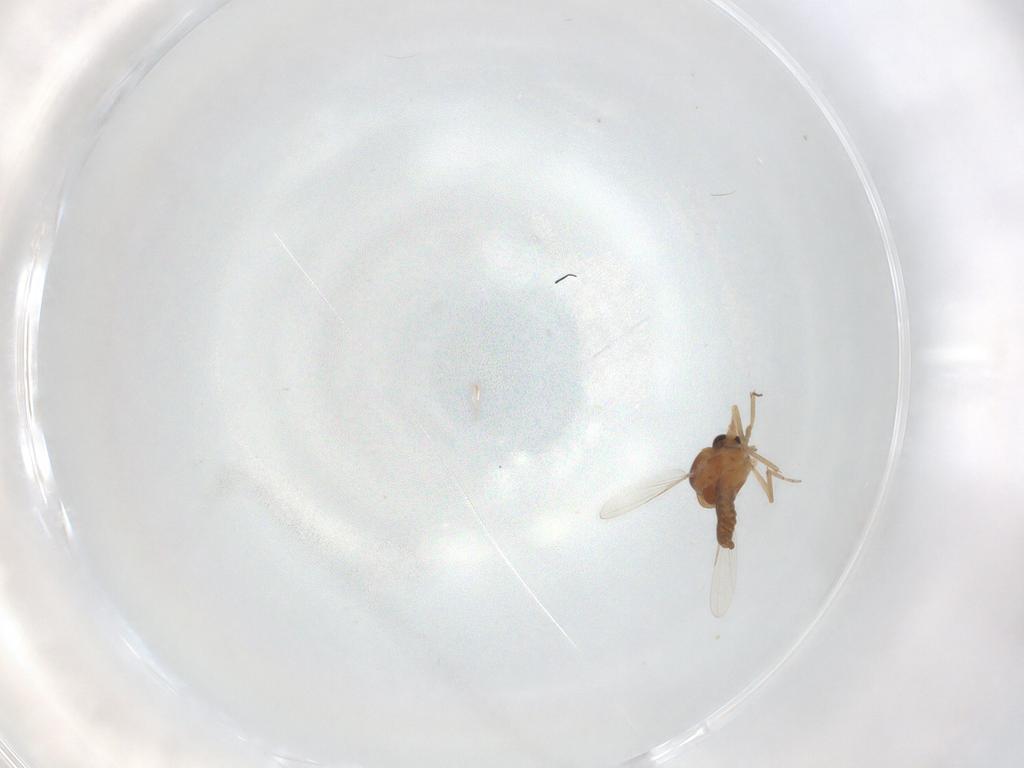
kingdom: Animalia
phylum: Arthropoda
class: Insecta
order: Diptera
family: Ceratopogonidae
